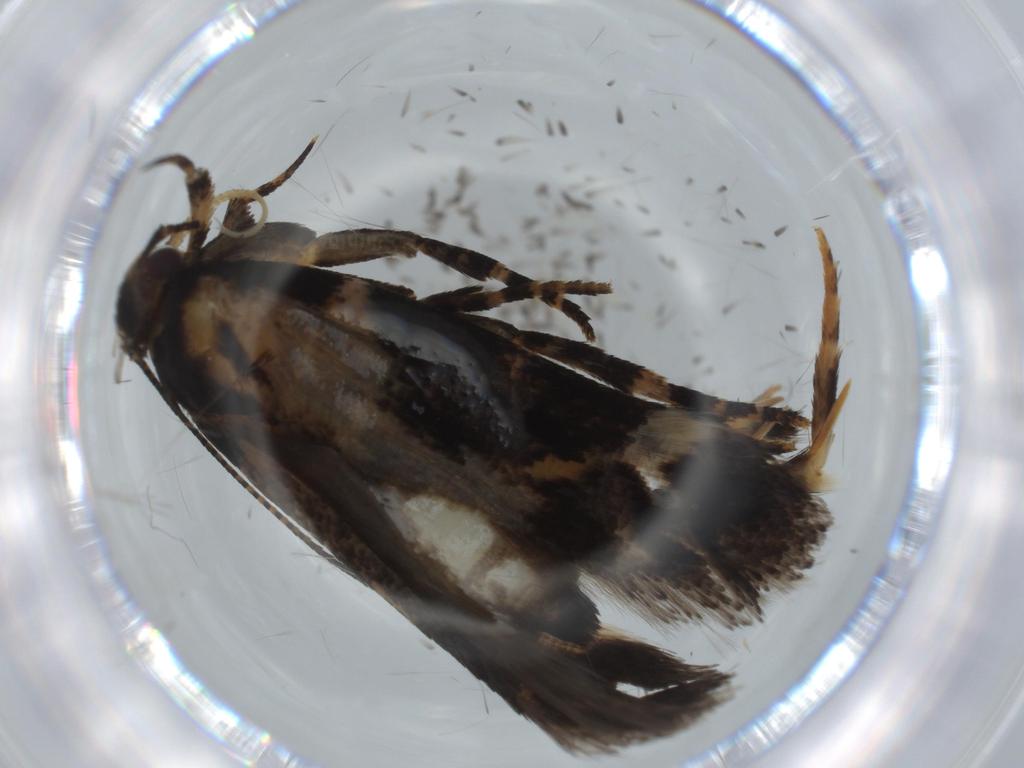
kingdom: Animalia
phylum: Arthropoda
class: Insecta
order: Lepidoptera
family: Gelechiidae
